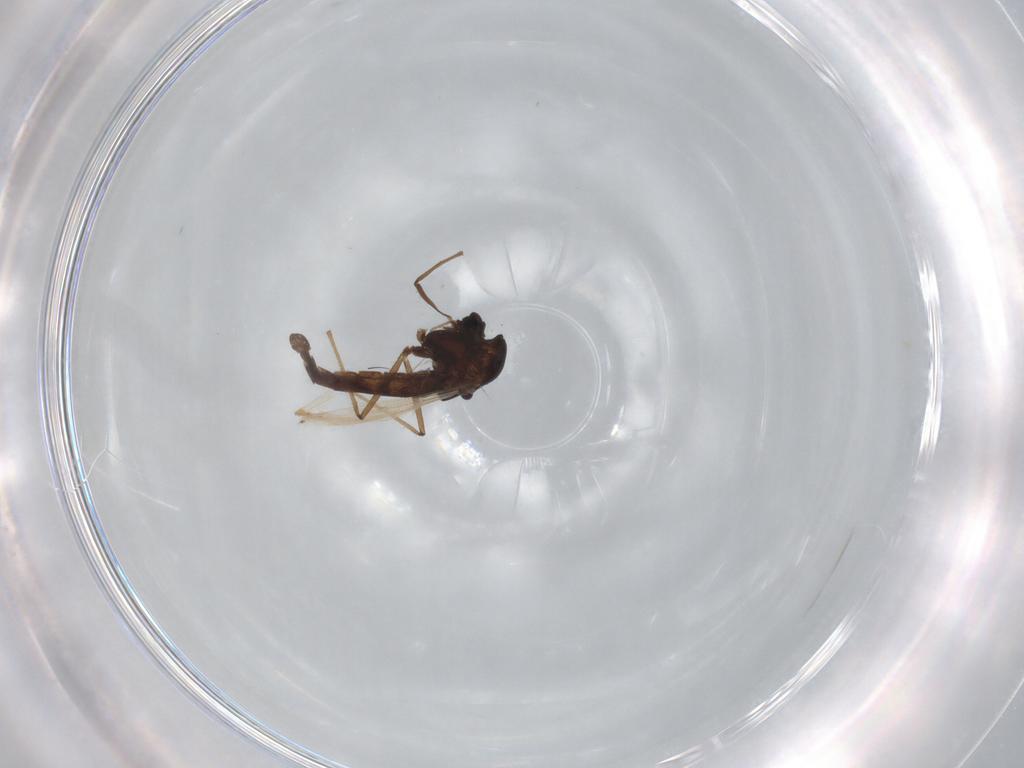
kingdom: Animalia
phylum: Arthropoda
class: Insecta
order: Diptera
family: Chironomidae
